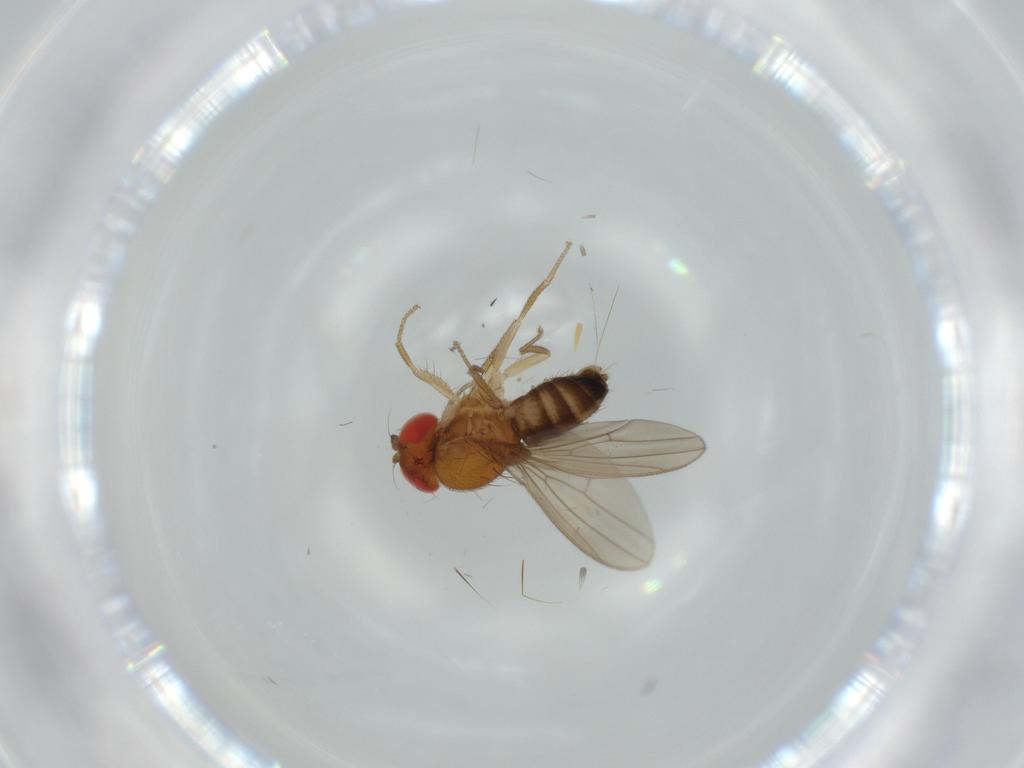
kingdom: Animalia
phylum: Arthropoda
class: Insecta
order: Diptera
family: Drosophilidae
